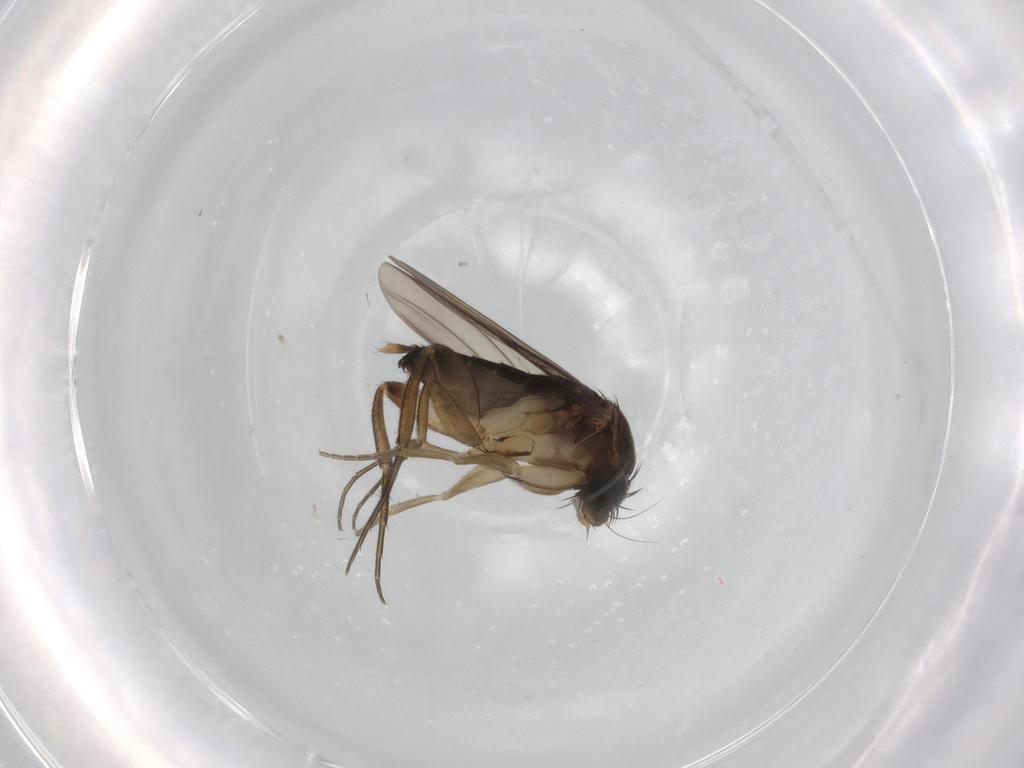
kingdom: Animalia
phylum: Arthropoda
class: Insecta
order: Diptera
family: Phoridae
